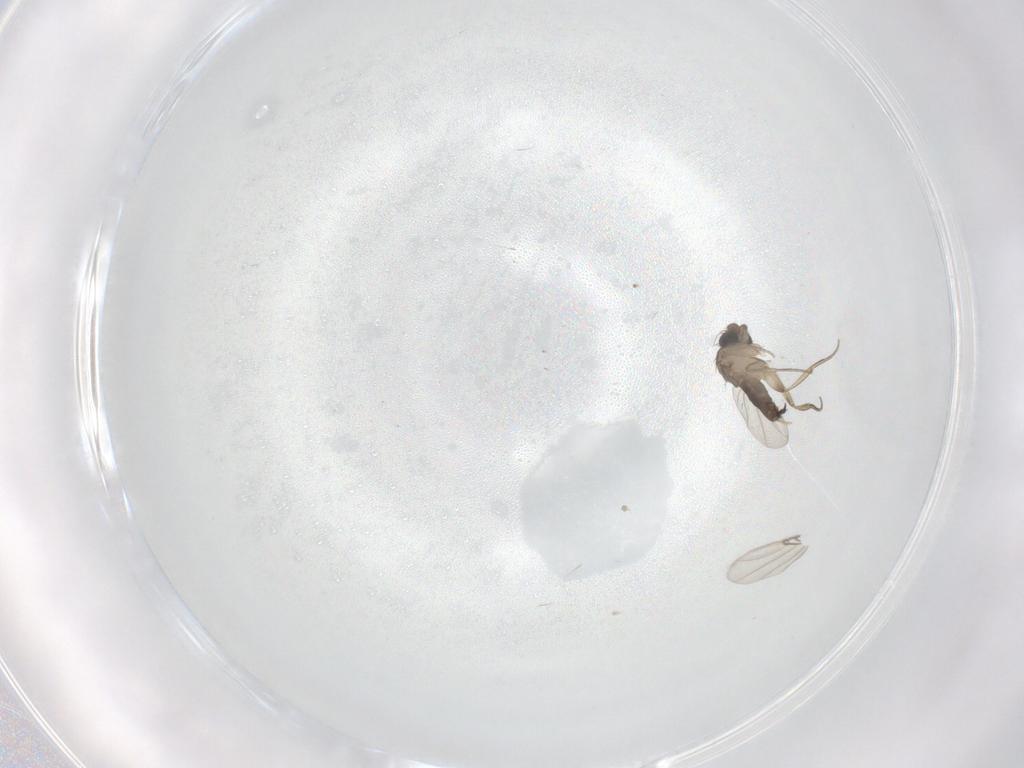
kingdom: Animalia
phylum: Arthropoda
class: Insecta
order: Diptera
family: Phoridae
